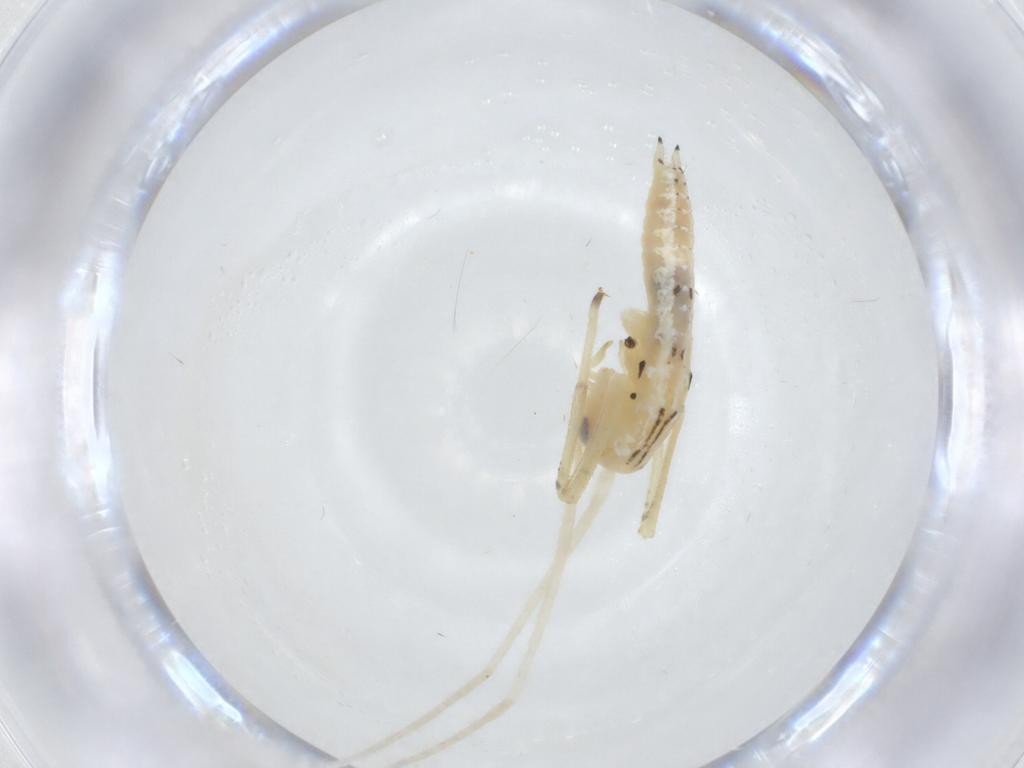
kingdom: Animalia
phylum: Arthropoda
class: Insecta
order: Orthoptera
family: Oecanthidae
